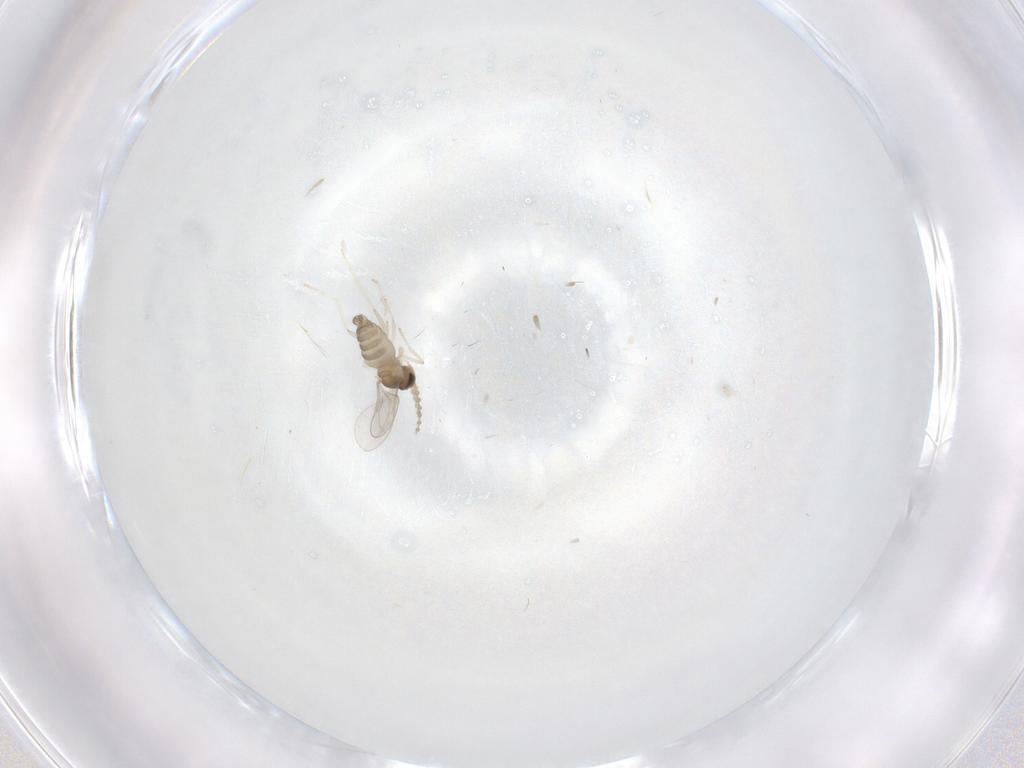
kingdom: Animalia
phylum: Arthropoda
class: Insecta
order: Diptera
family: Cecidomyiidae
